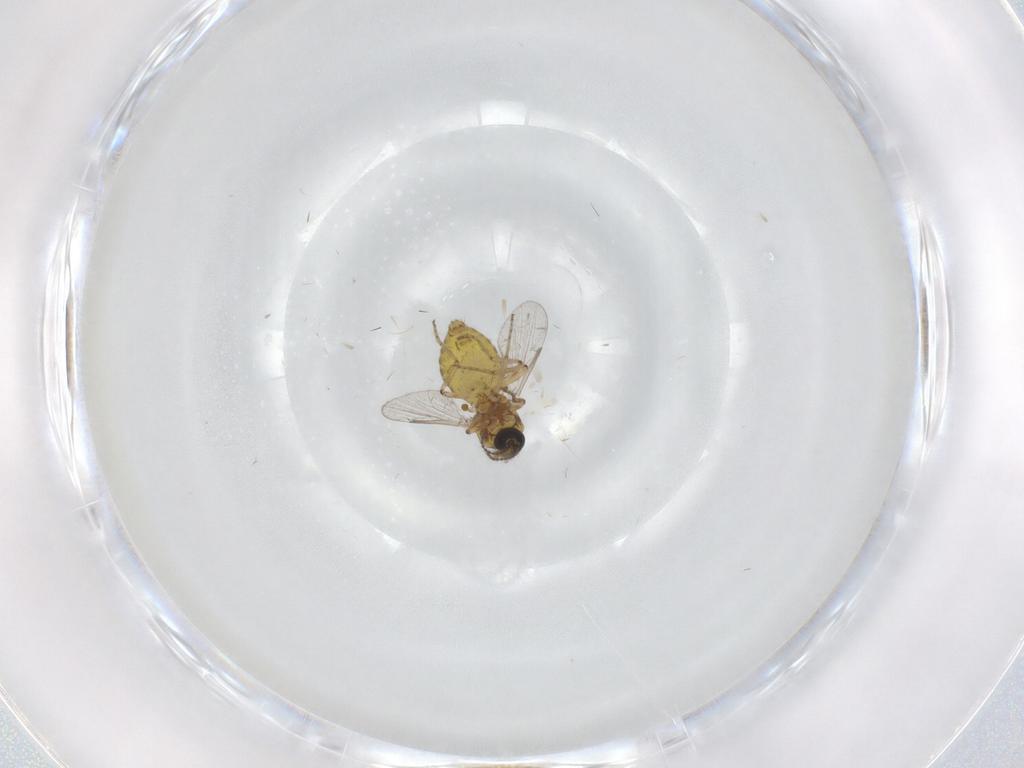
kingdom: Animalia
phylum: Arthropoda
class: Insecta
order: Diptera
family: Ceratopogonidae
